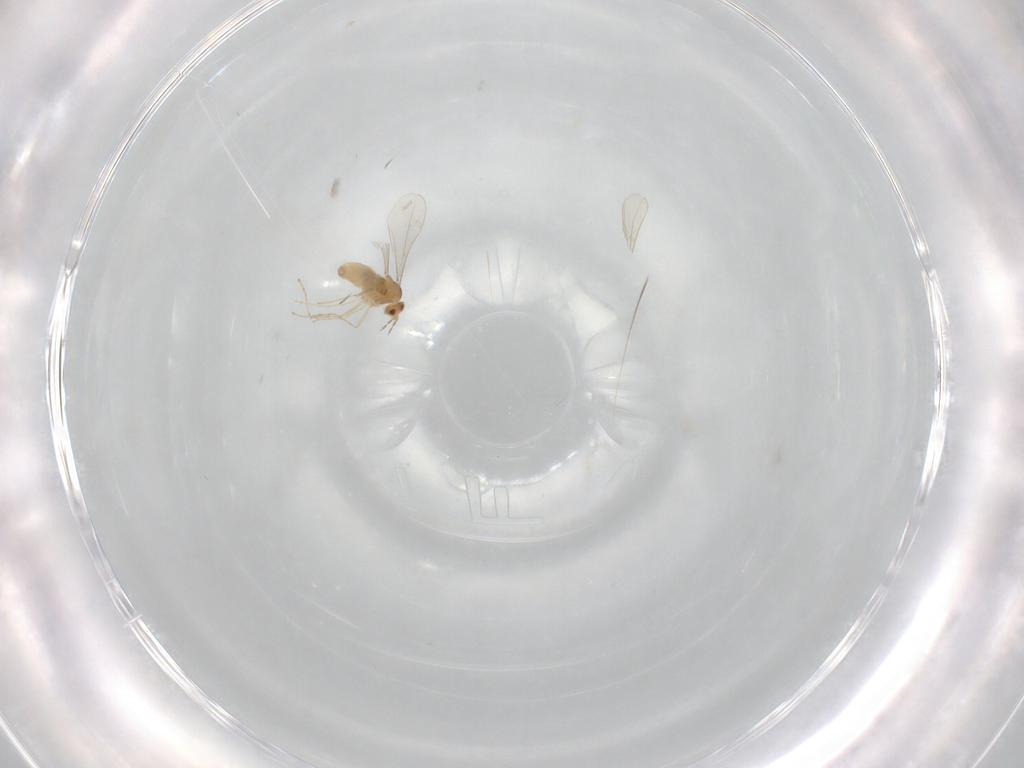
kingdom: Animalia
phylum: Arthropoda
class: Insecta
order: Diptera
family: Cecidomyiidae
